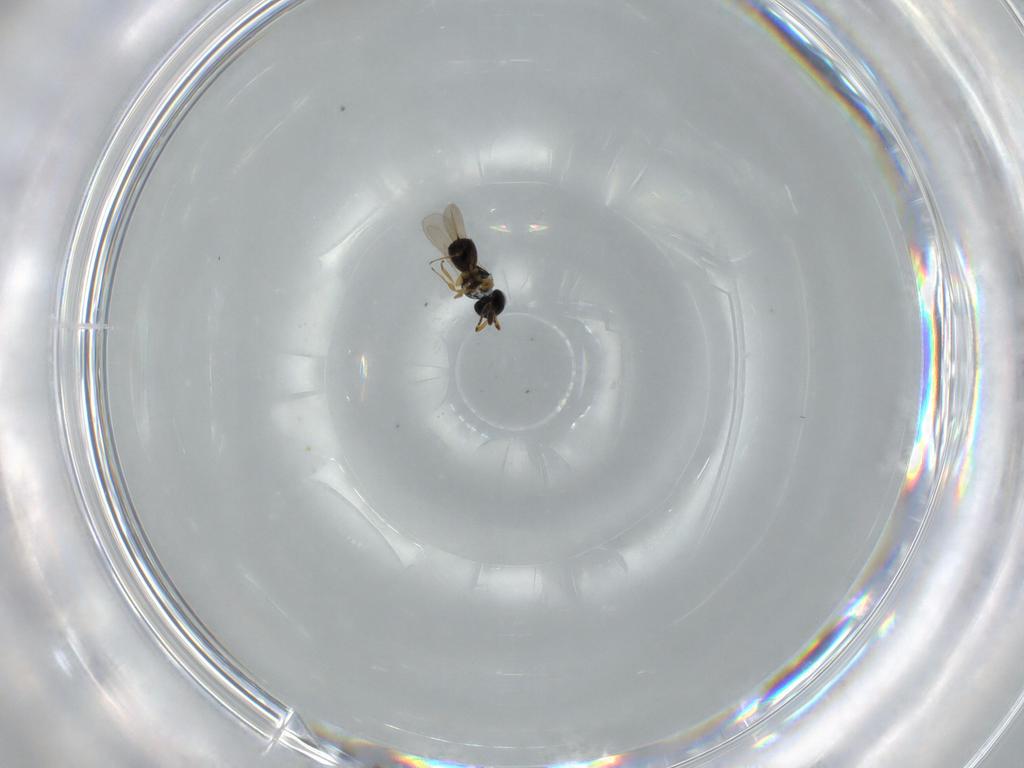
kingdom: Animalia
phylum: Arthropoda
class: Insecta
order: Hymenoptera
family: Scelionidae
